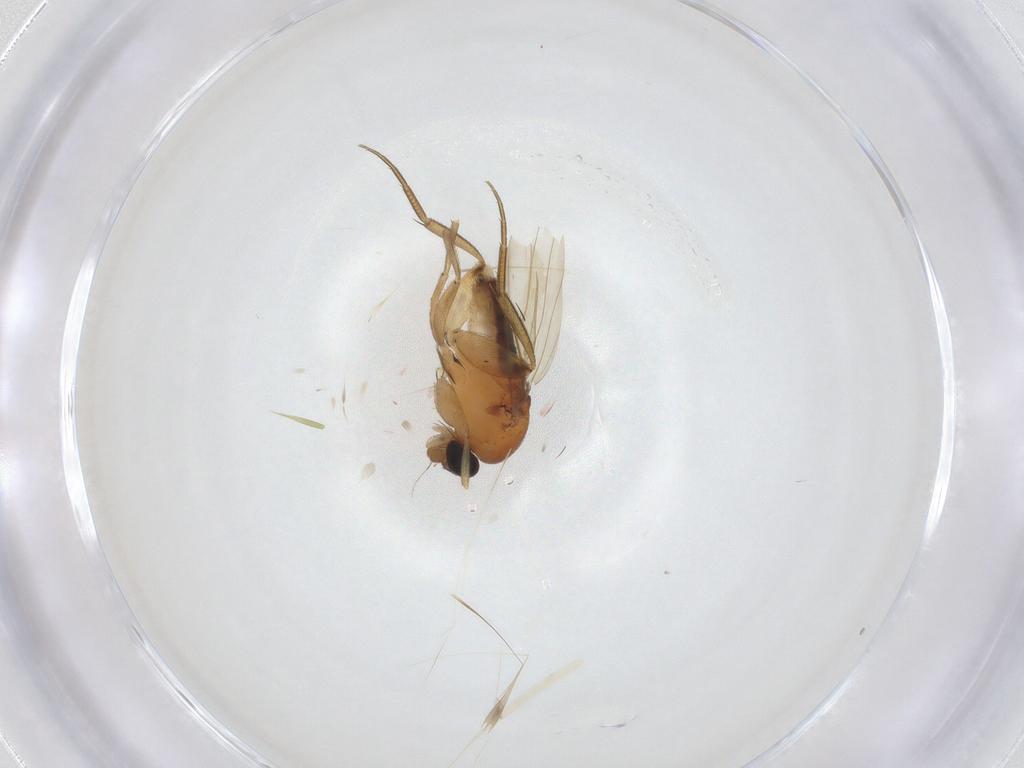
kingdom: Animalia
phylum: Arthropoda
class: Insecta
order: Diptera
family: Phoridae
